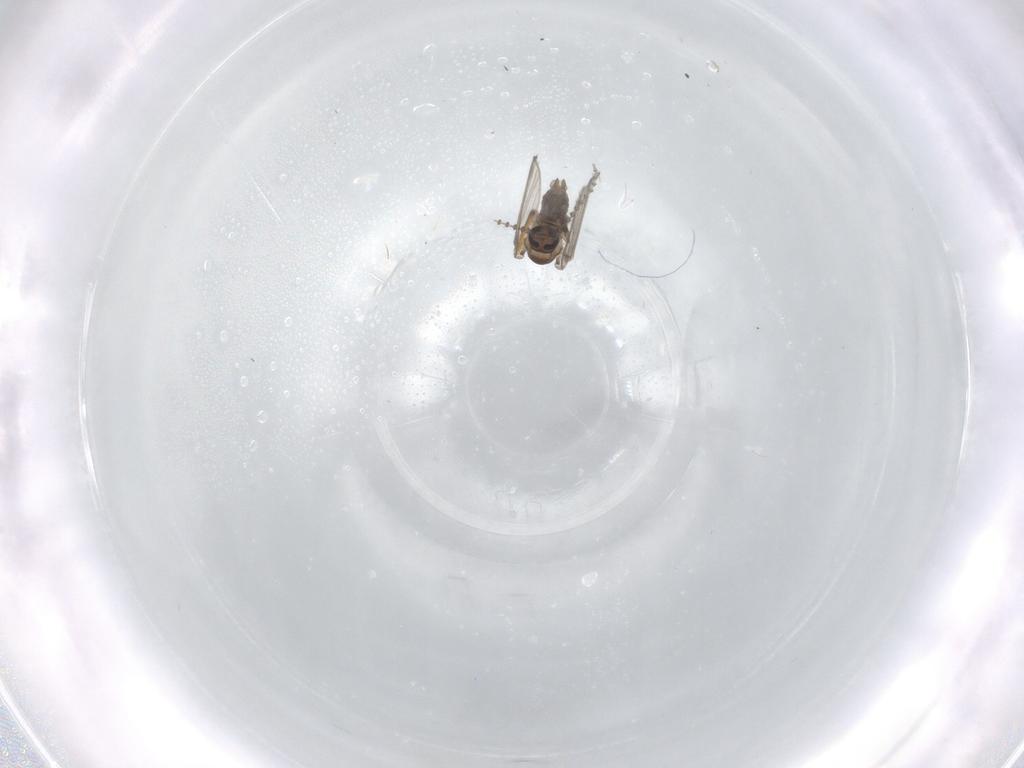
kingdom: Animalia
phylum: Arthropoda
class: Insecta
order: Diptera
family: Psychodidae
